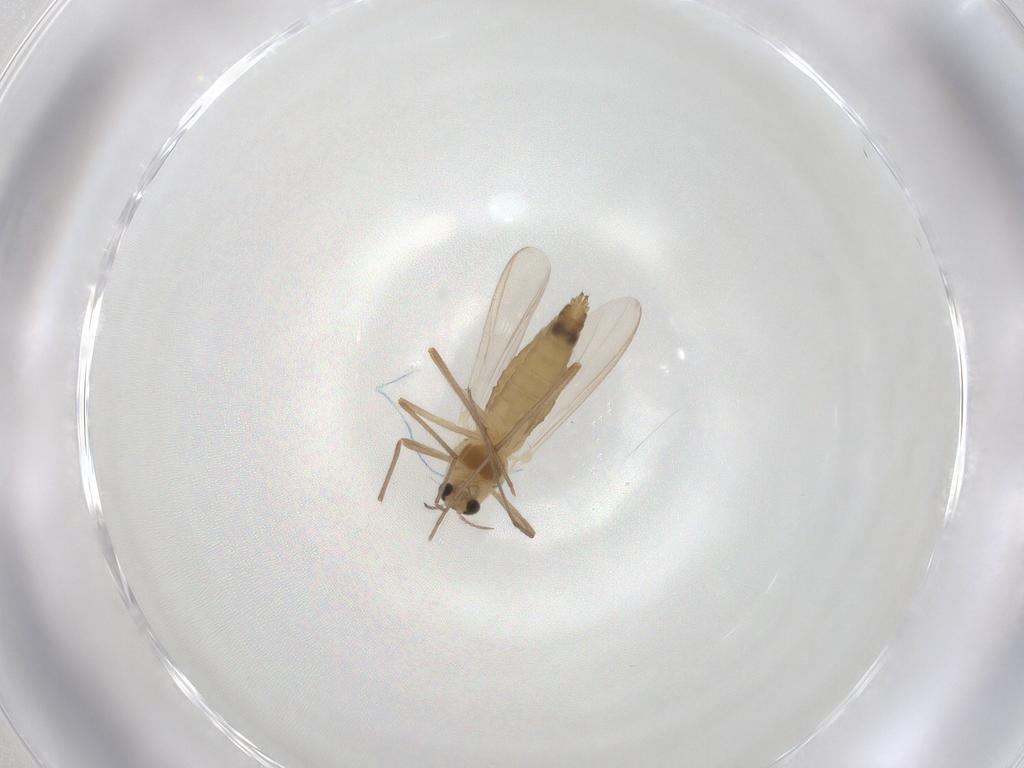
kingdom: Animalia
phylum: Arthropoda
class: Insecta
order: Diptera
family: Chironomidae
